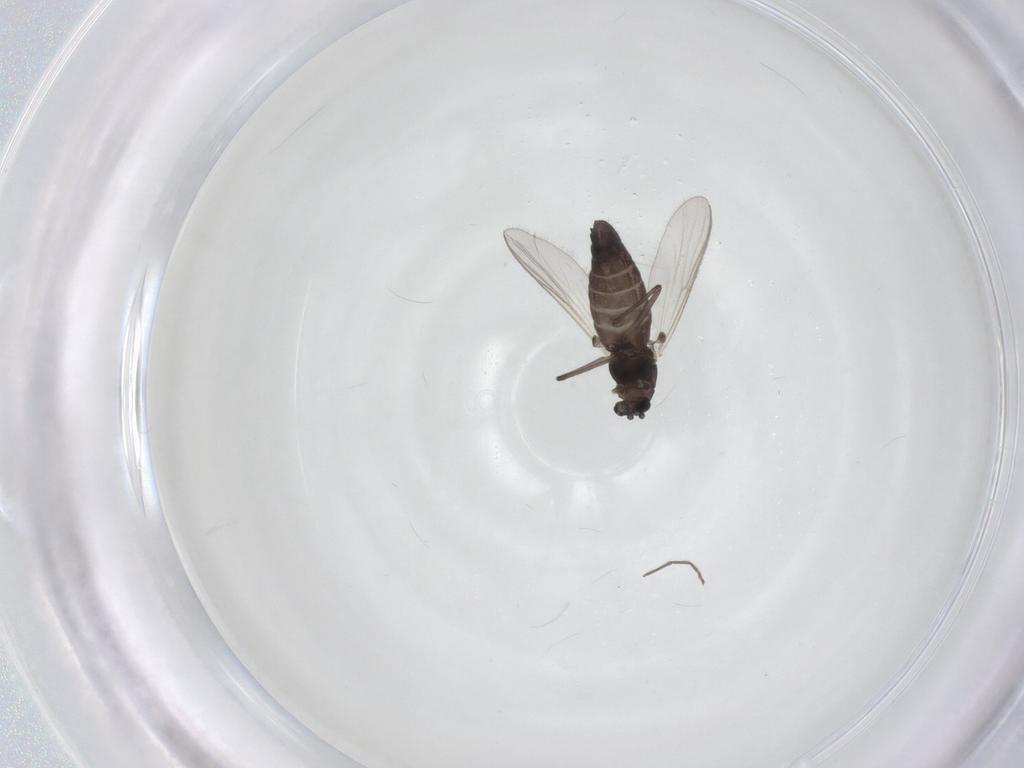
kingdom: Animalia
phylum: Arthropoda
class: Insecta
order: Diptera
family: Chironomidae
